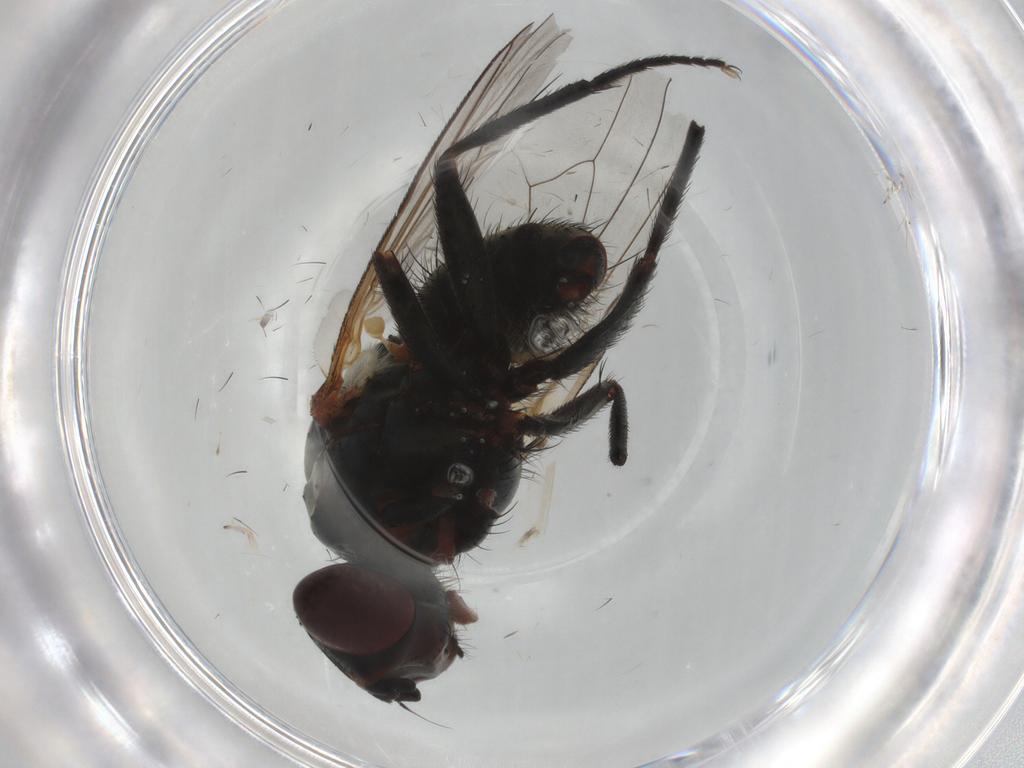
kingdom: Animalia
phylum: Arthropoda
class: Insecta
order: Diptera
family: Anthomyiidae
